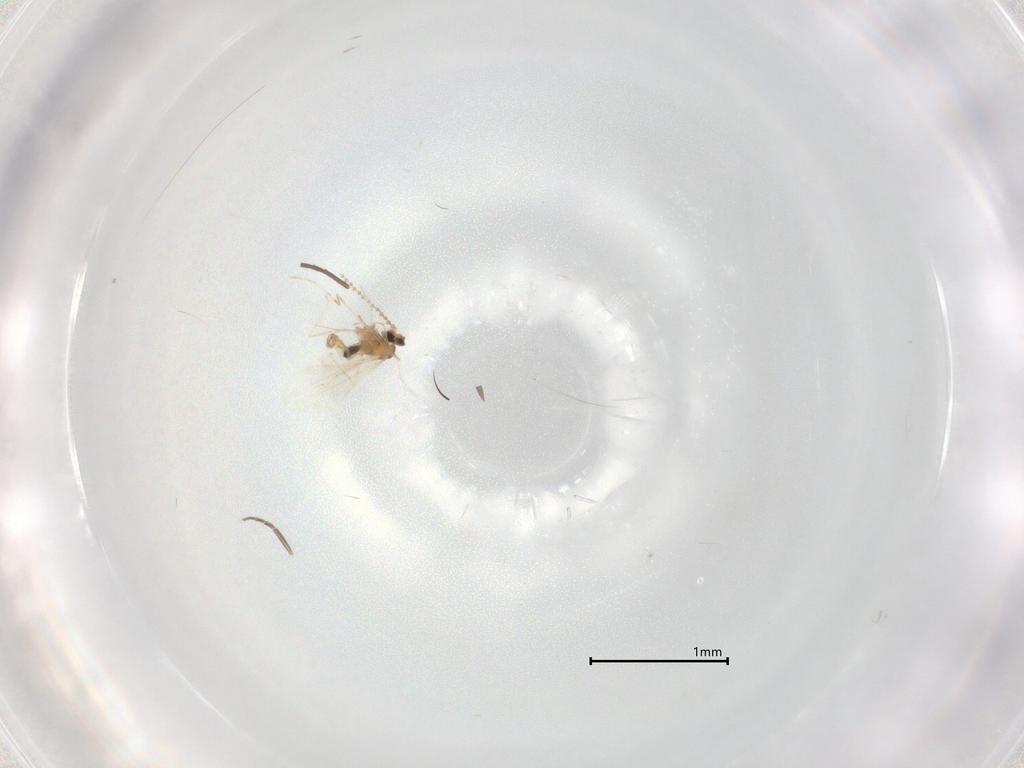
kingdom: Animalia
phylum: Arthropoda
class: Insecta
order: Diptera
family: Cecidomyiidae
